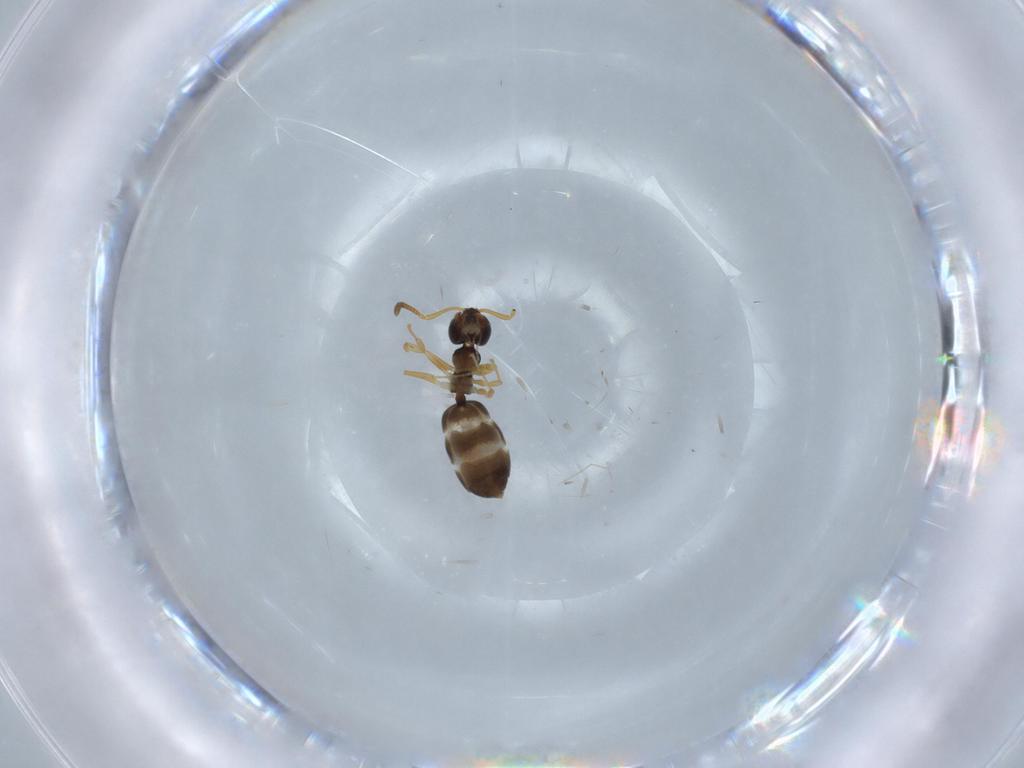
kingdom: Animalia
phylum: Arthropoda
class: Insecta
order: Hymenoptera
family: Formicidae
